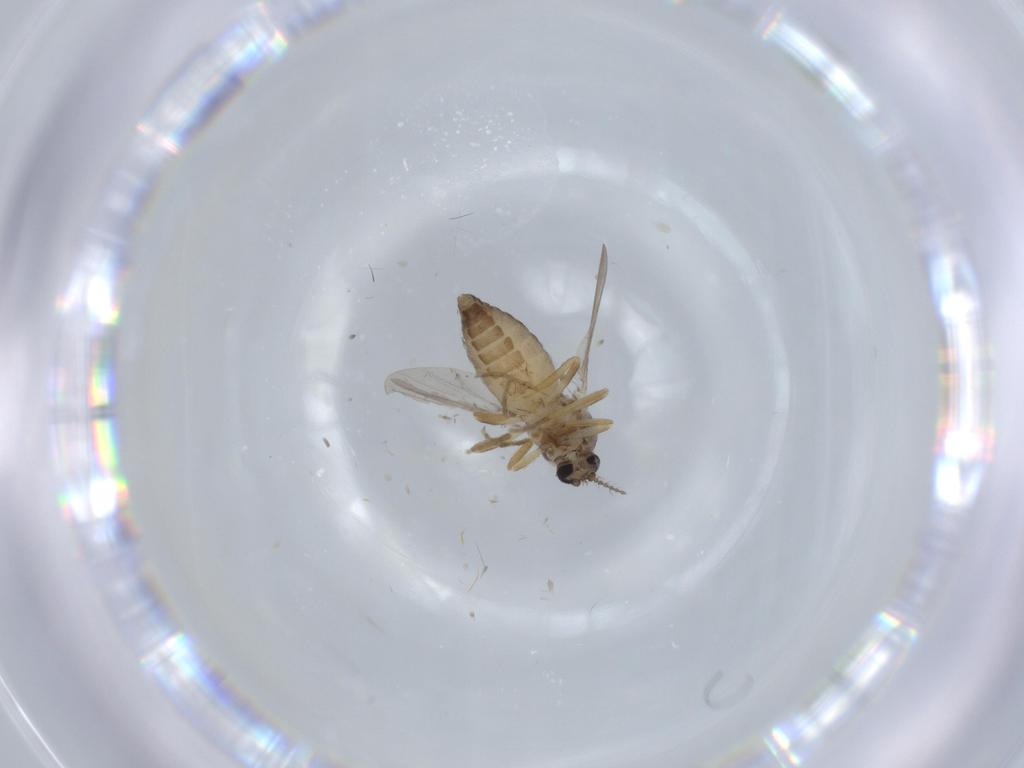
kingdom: Animalia
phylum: Arthropoda
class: Insecta
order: Diptera
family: Ceratopogonidae
